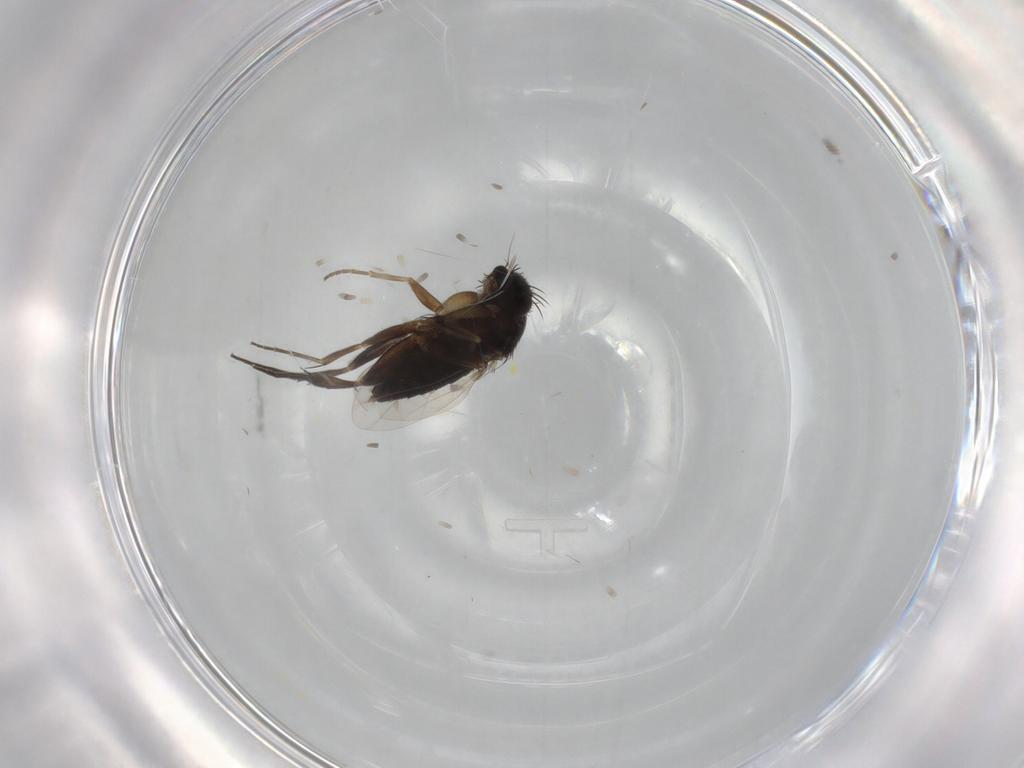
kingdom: Animalia
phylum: Arthropoda
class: Insecta
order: Diptera
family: Phoridae
